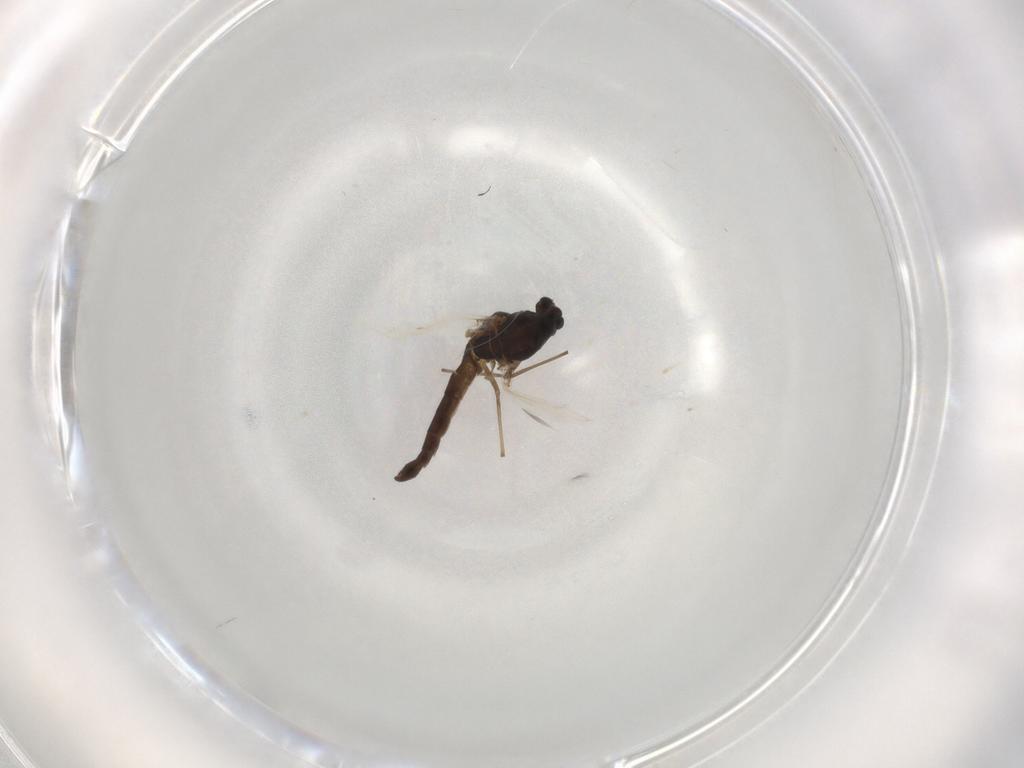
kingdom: Animalia
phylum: Arthropoda
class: Insecta
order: Diptera
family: Chironomidae
